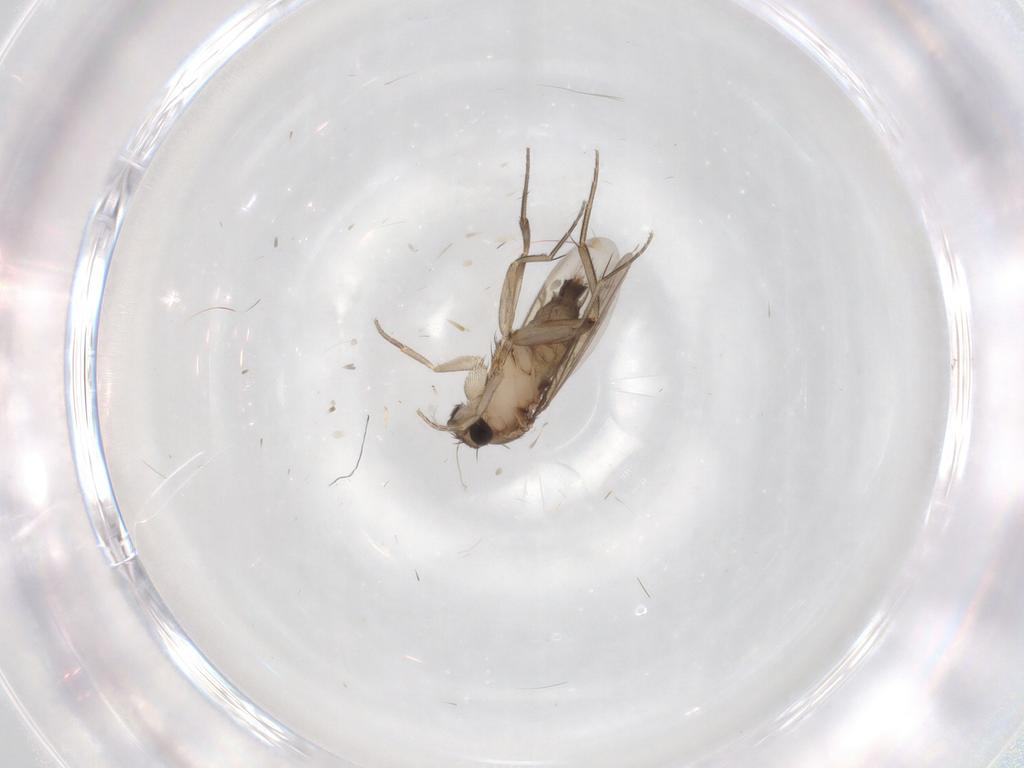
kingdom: Animalia
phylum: Arthropoda
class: Insecta
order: Diptera
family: Phoridae
